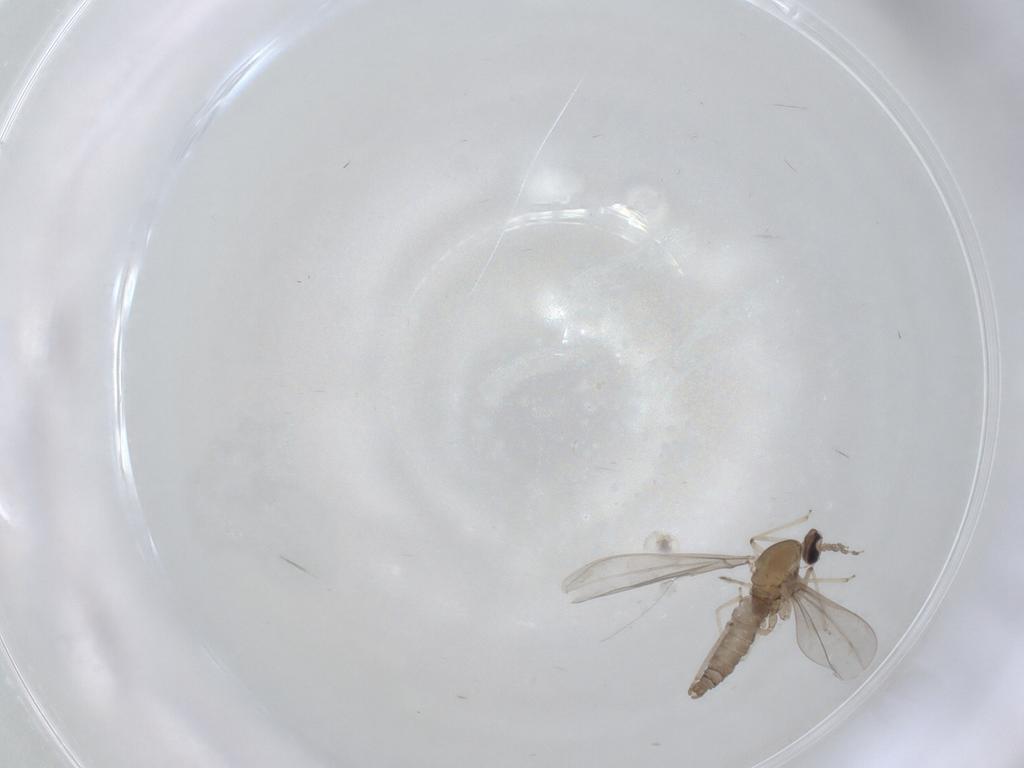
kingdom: Animalia
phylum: Arthropoda
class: Insecta
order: Diptera
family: Cecidomyiidae
